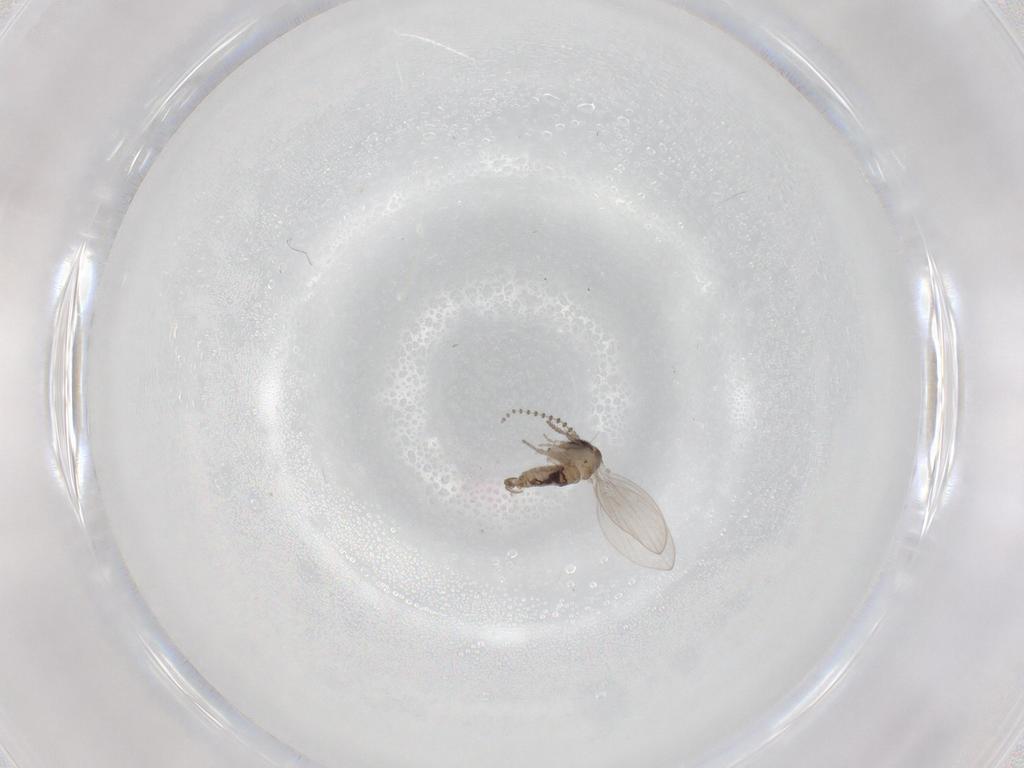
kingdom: Animalia
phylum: Arthropoda
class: Insecta
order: Diptera
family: Psychodidae
